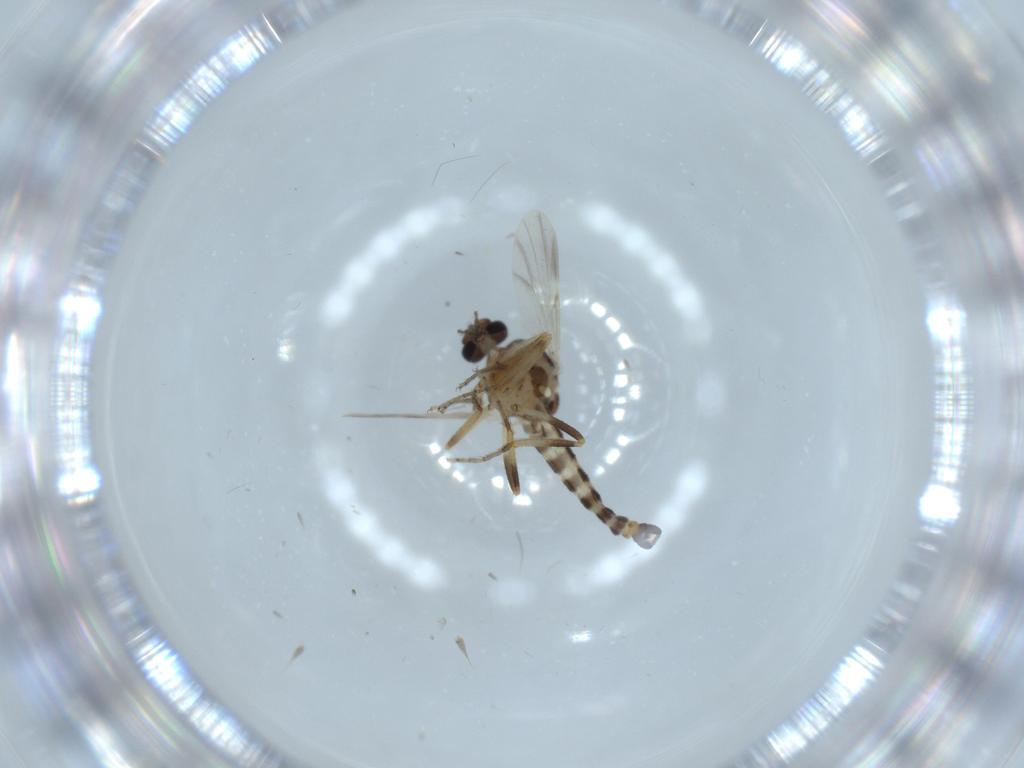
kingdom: Animalia
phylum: Arthropoda
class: Insecta
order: Diptera
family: Ceratopogonidae
